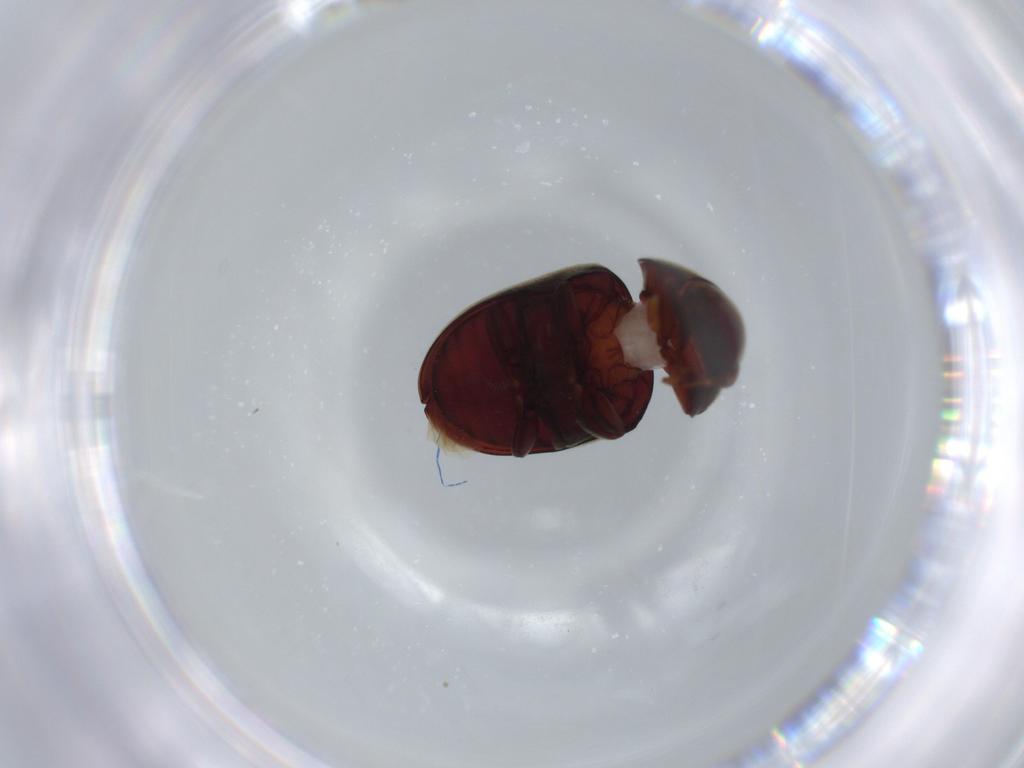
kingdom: Animalia
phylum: Arthropoda
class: Insecta
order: Coleoptera
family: Ptinidae
